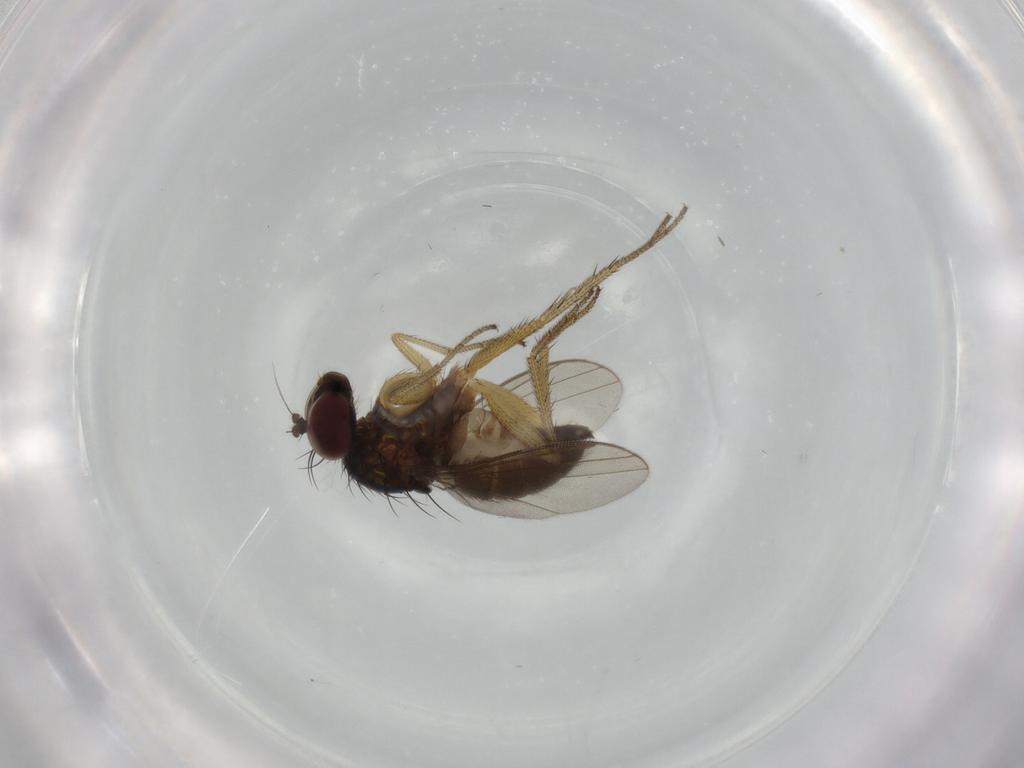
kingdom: Animalia
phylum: Arthropoda
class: Insecta
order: Diptera
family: Dolichopodidae
